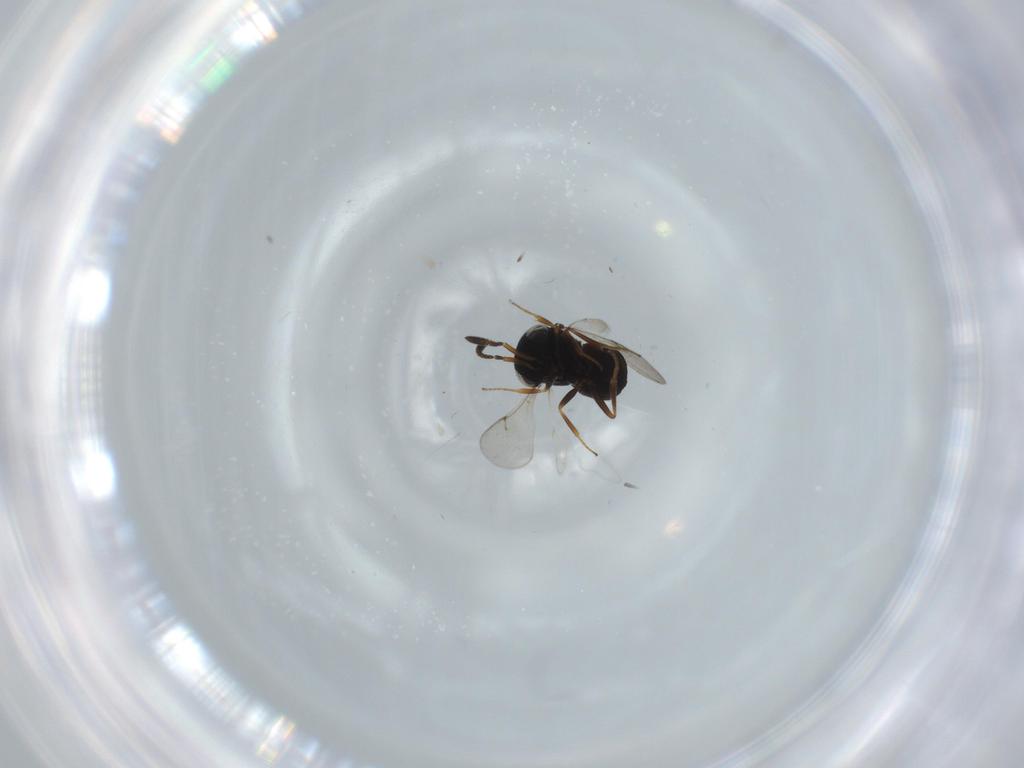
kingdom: Animalia
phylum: Arthropoda
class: Insecta
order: Hymenoptera
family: Scelionidae
